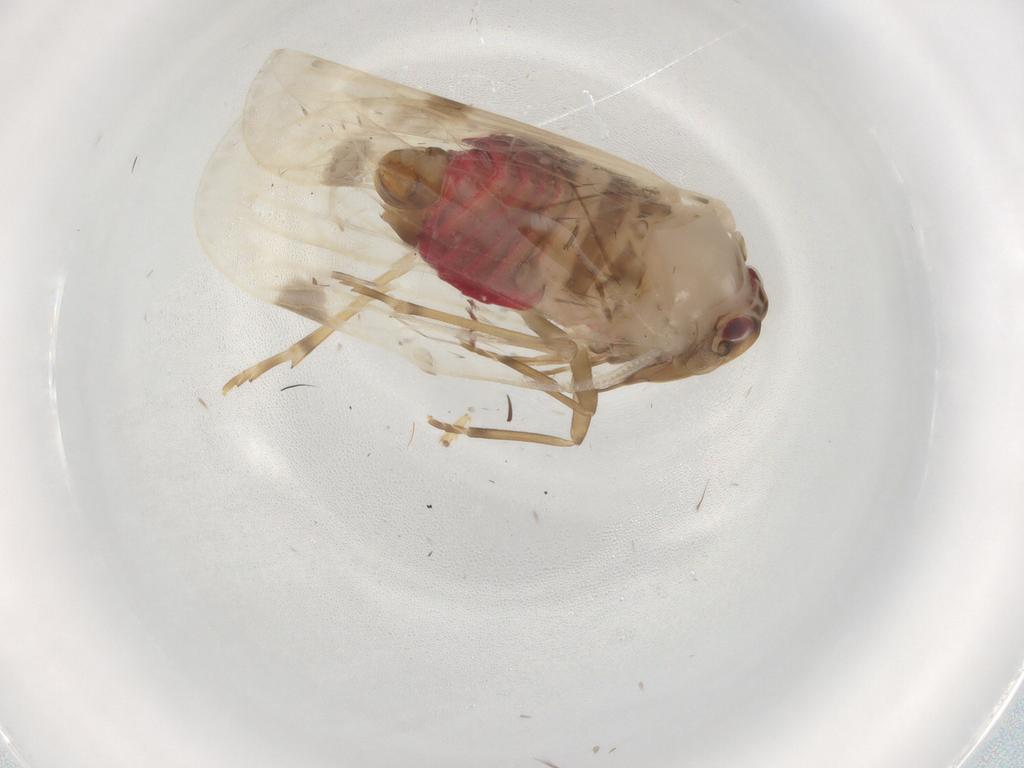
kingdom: Animalia
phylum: Arthropoda
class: Insecta
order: Hemiptera
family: Achilidae
